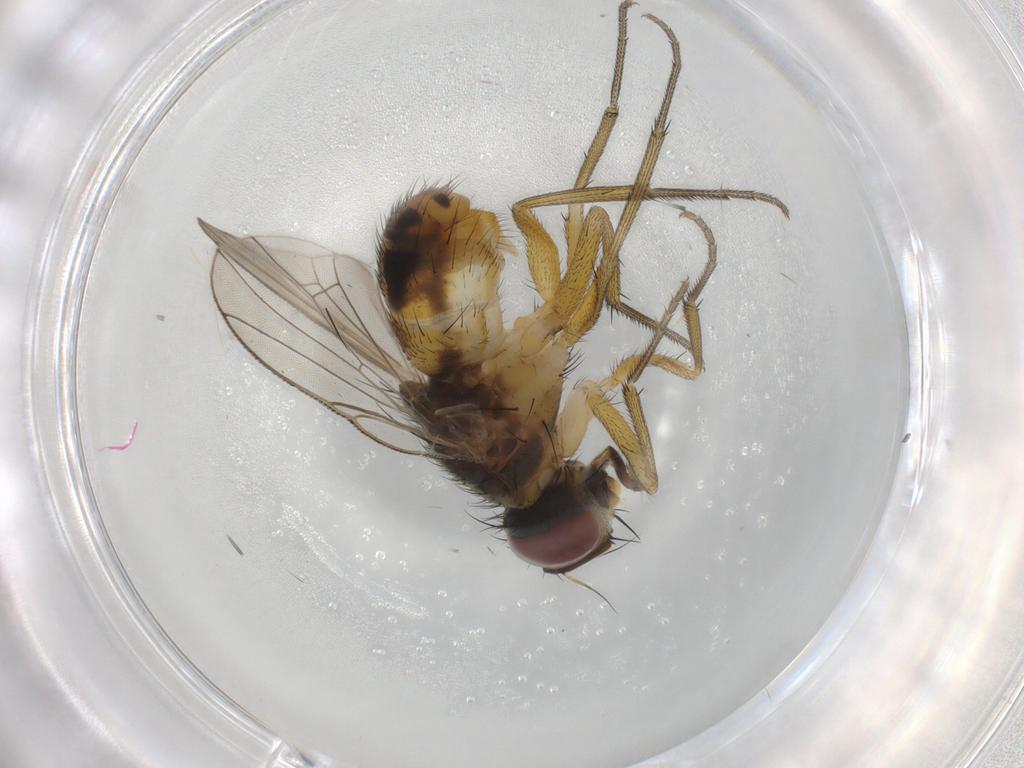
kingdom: Animalia
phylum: Arthropoda
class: Insecta
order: Diptera
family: Muscidae
